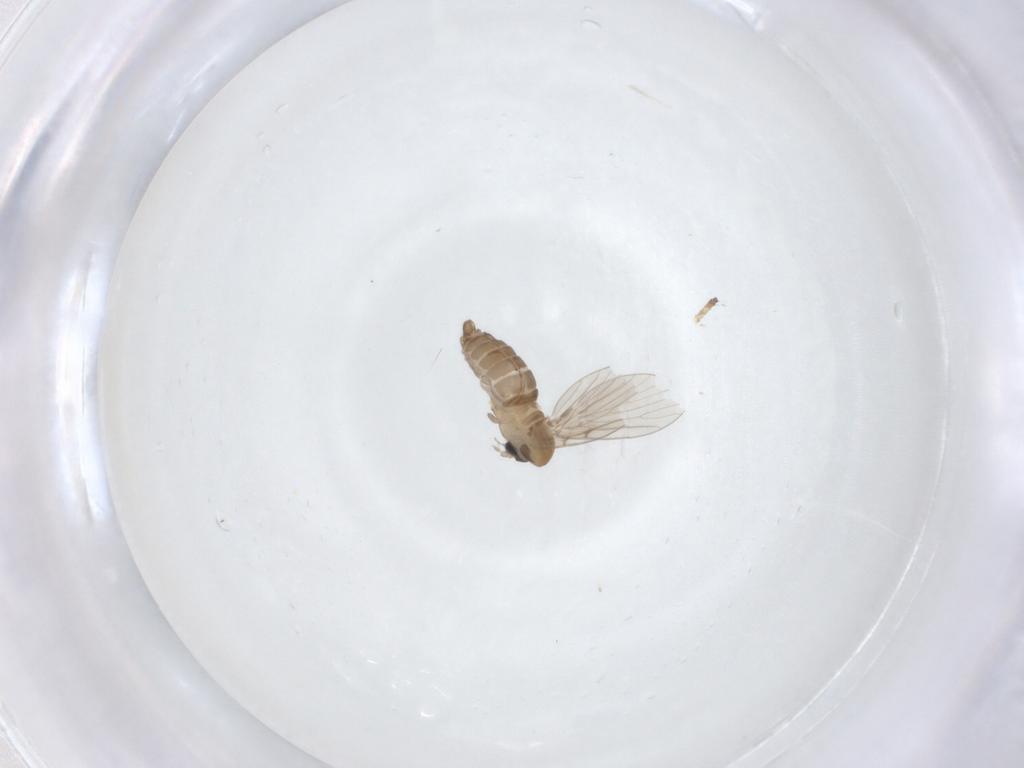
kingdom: Animalia
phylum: Arthropoda
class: Insecta
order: Diptera
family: Psychodidae
